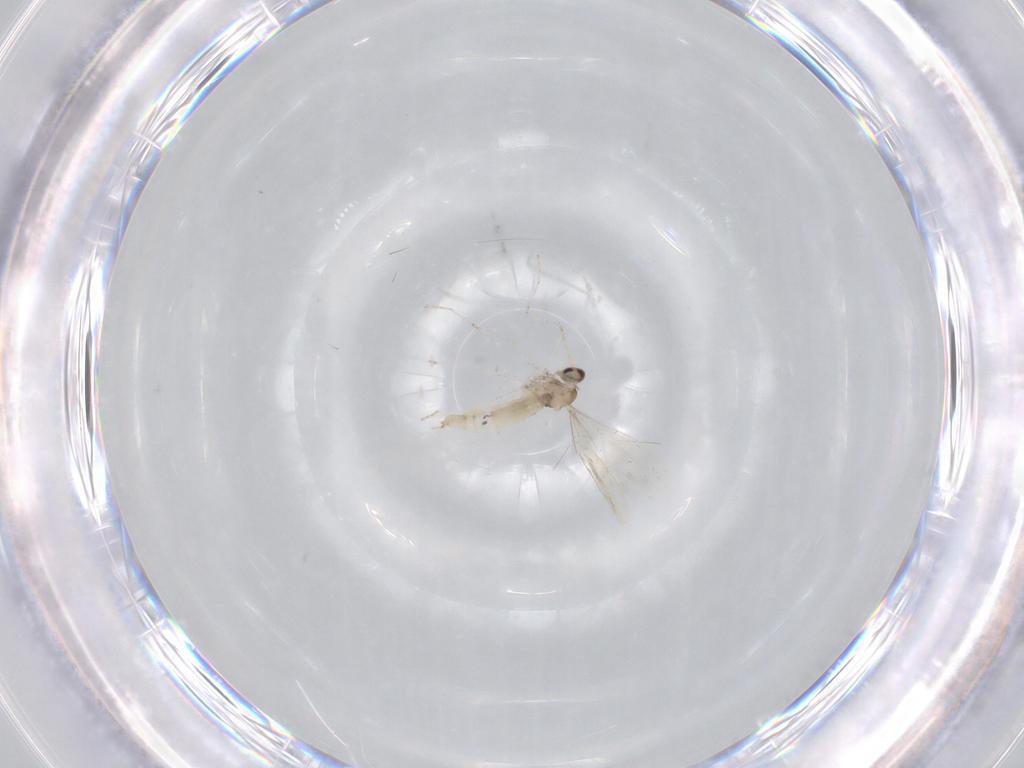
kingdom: Animalia
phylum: Arthropoda
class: Insecta
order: Diptera
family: Cecidomyiidae
